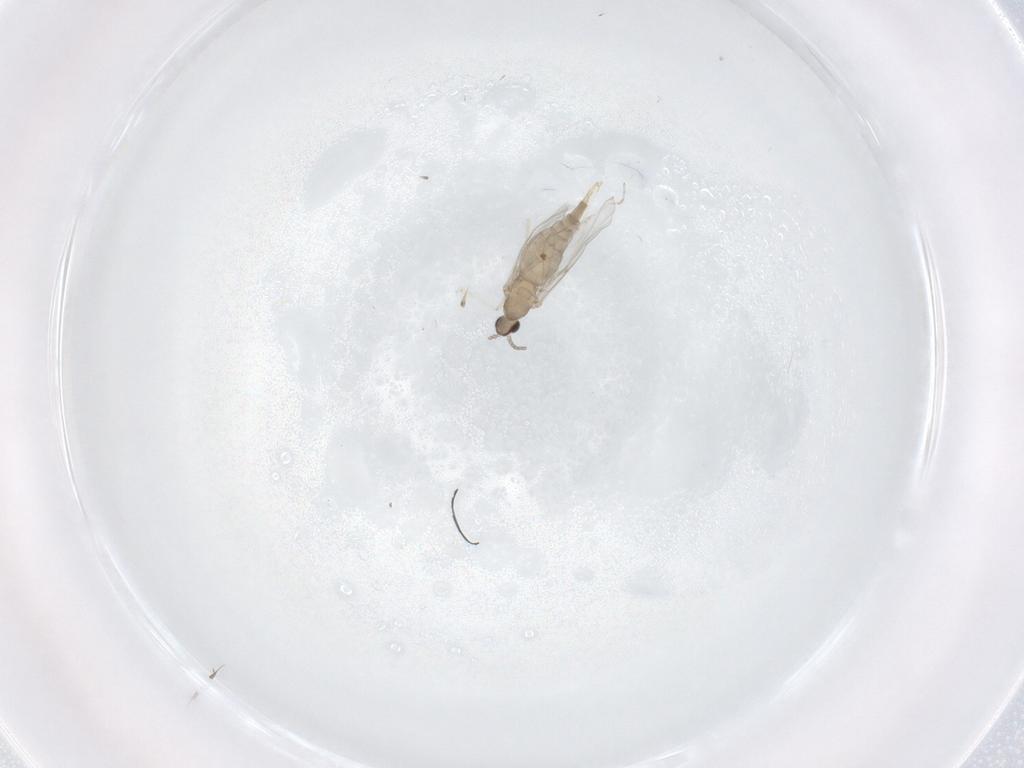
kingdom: Animalia
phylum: Arthropoda
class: Insecta
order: Diptera
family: Cecidomyiidae
